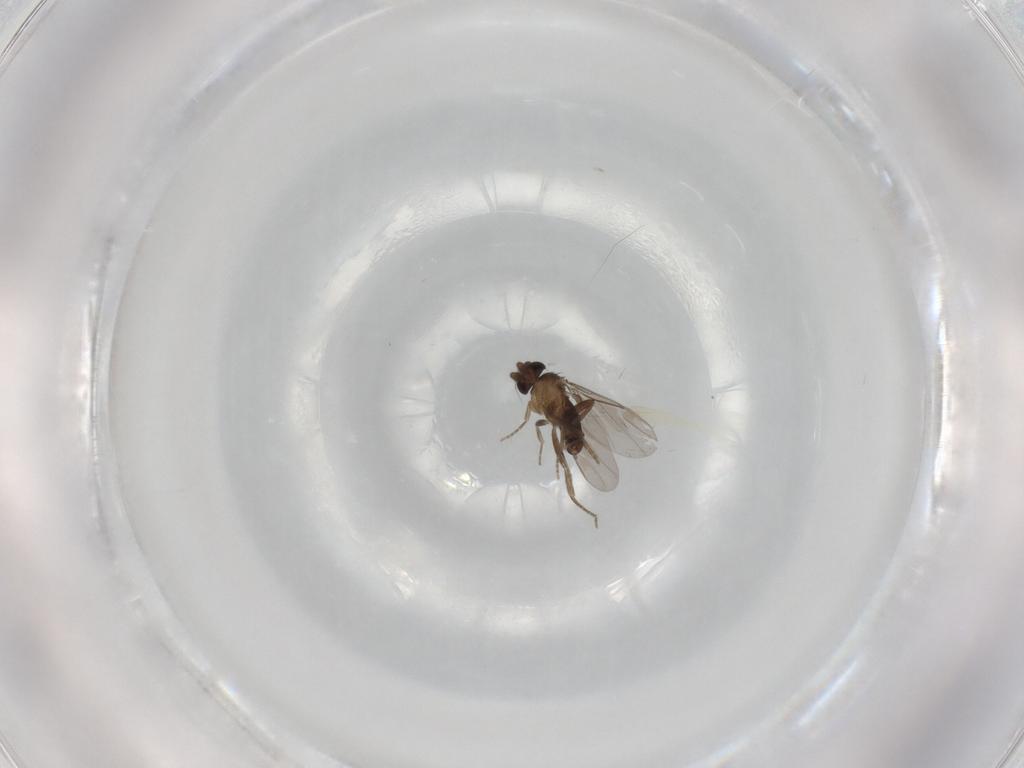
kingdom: Animalia
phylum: Arthropoda
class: Insecta
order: Diptera
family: Chironomidae
